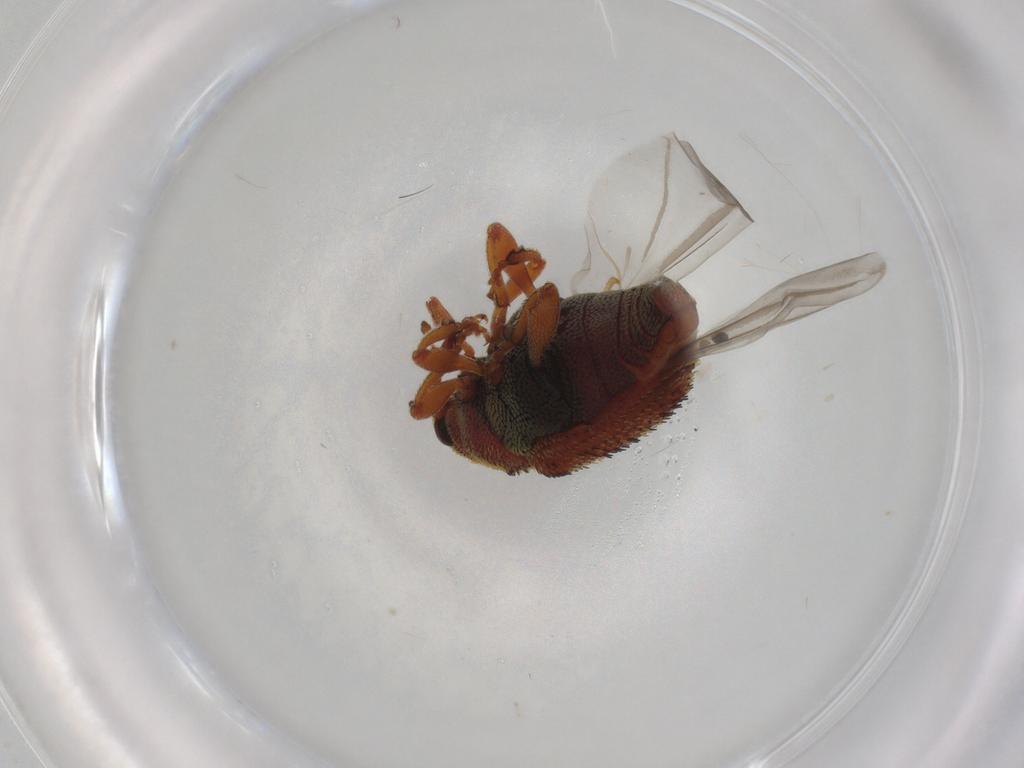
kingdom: Animalia
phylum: Arthropoda
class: Insecta
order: Coleoptera
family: Curculionidae
